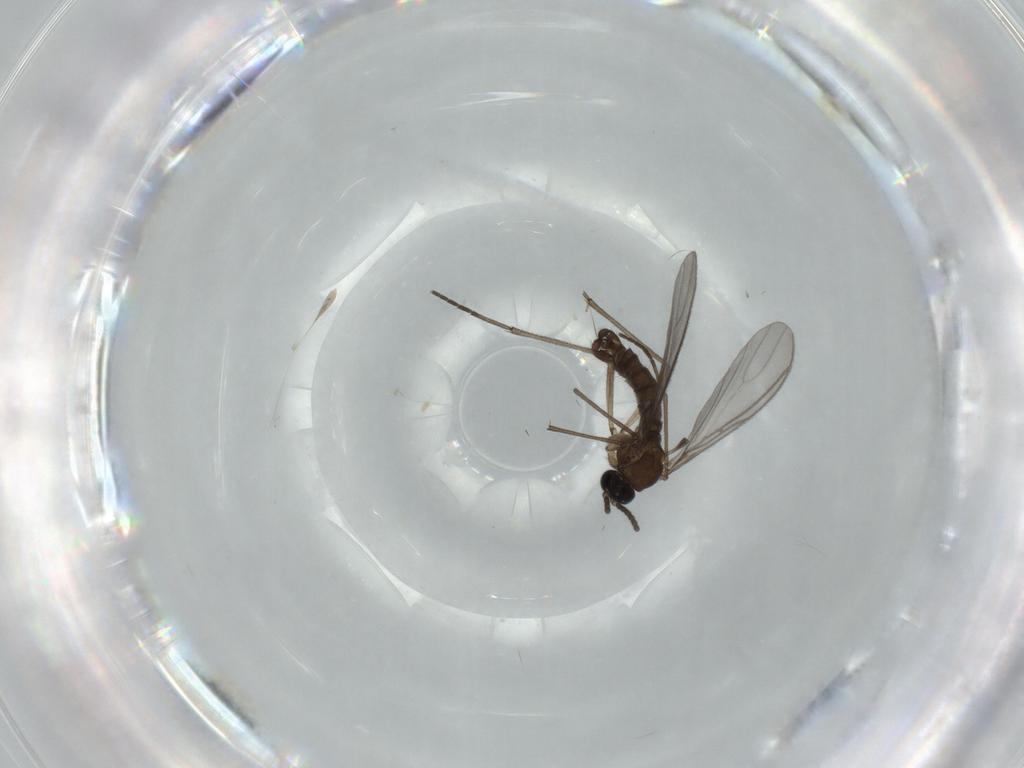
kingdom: Animalia
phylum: Arthropoda
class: Insecta
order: Diptera
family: Sciaridae
